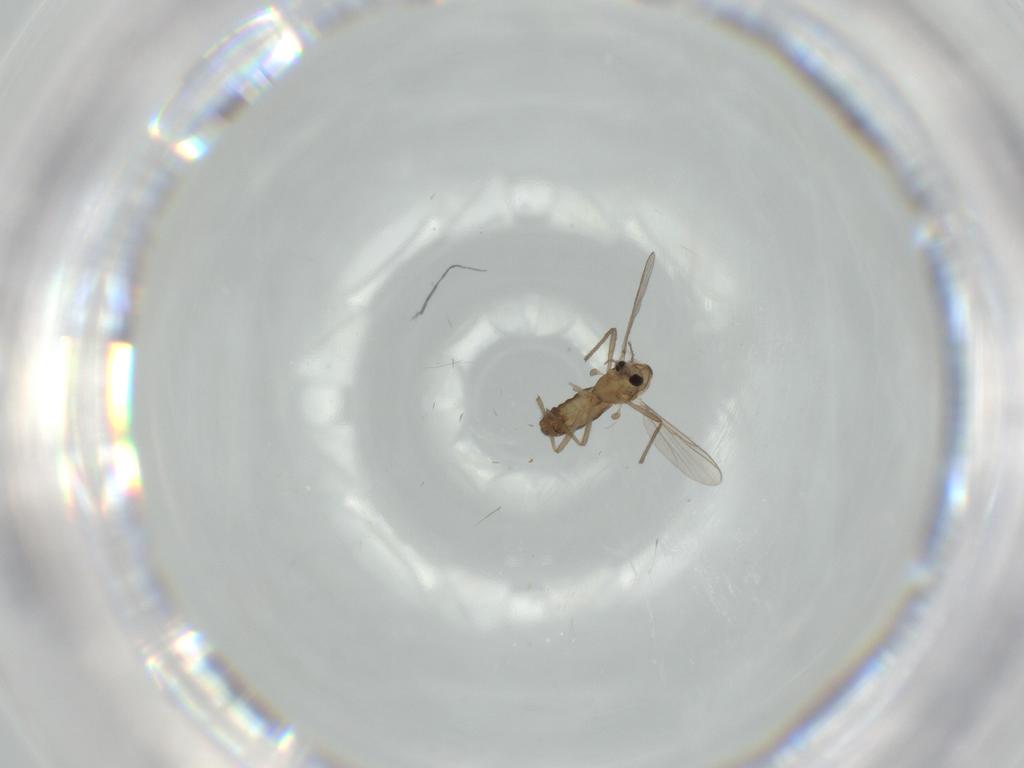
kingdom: Animalia
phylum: Arthropoda
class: Insecta
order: Diptera
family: Chironomidae
